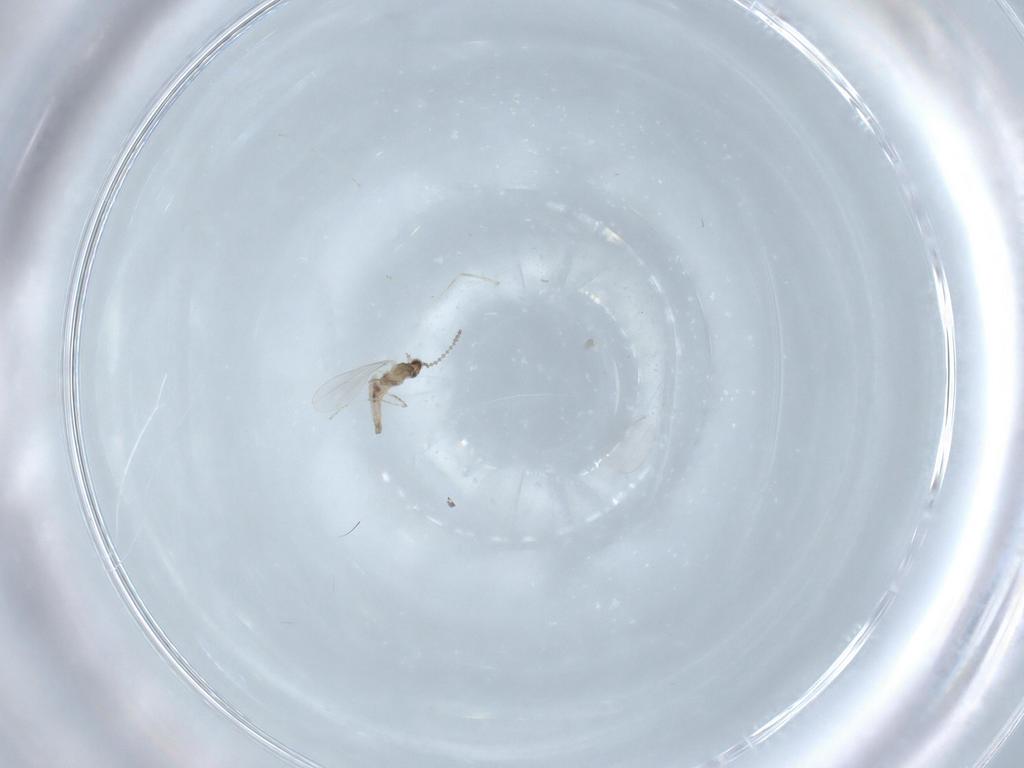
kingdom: Animalia
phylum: Arthropoda
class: Insecta
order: Diptera
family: Cecidomyiidae
